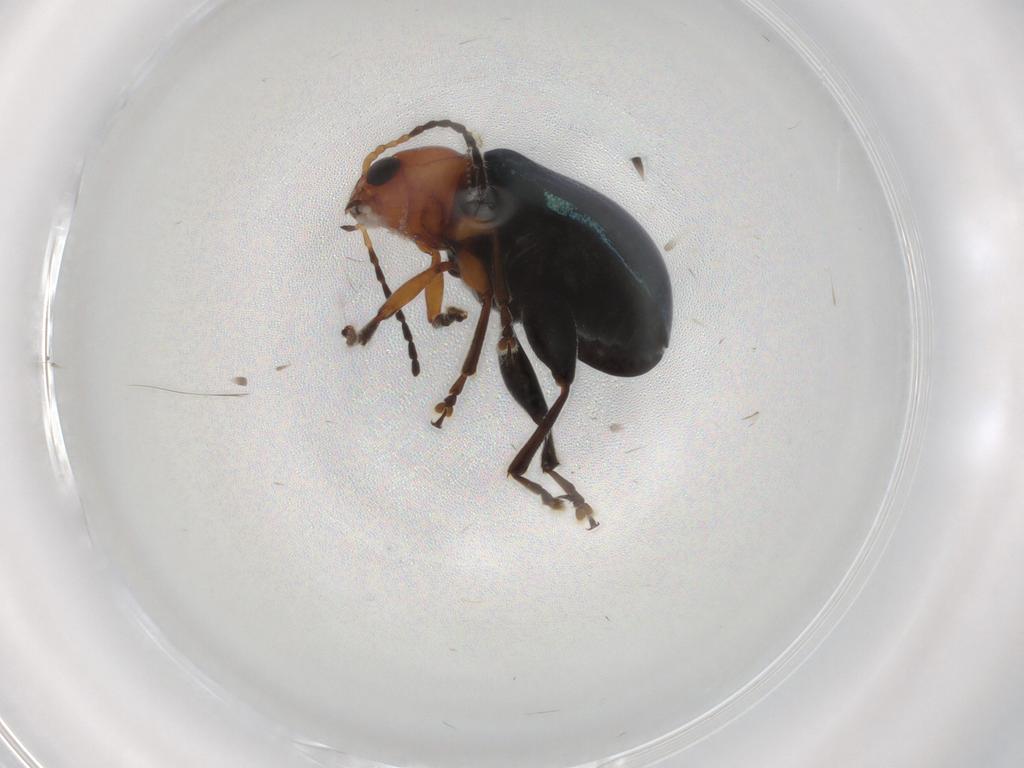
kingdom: Animalia
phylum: Arthropoda
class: Insecta
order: Coleoptera
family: Chrysomelidae
